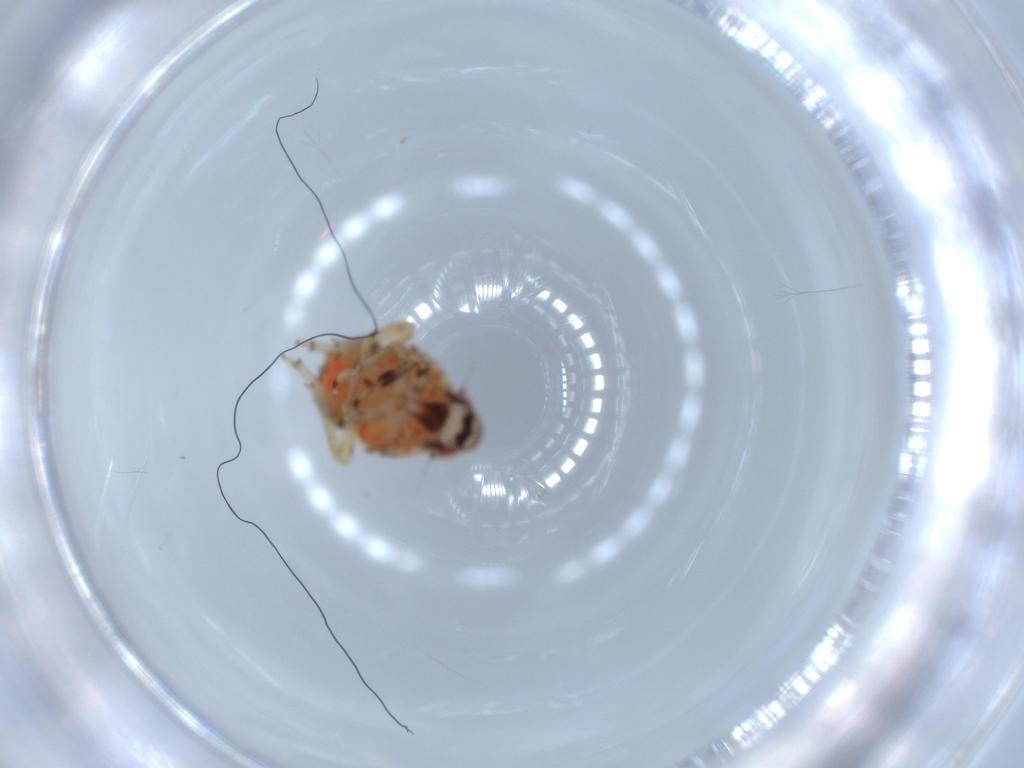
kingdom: Animalia
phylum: Arthropoda
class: Insecta
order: Hemiptera
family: Issidae
